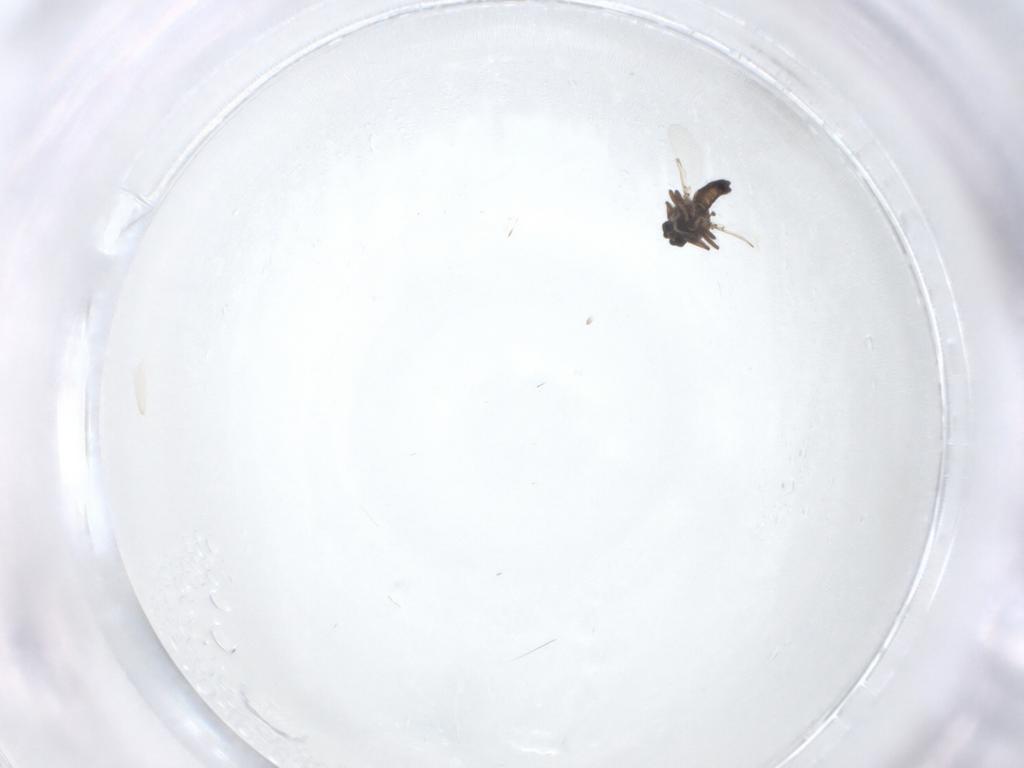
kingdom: Animalia
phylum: Arthropoda
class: Insecta
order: Diptera
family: Ceratopogonidae
